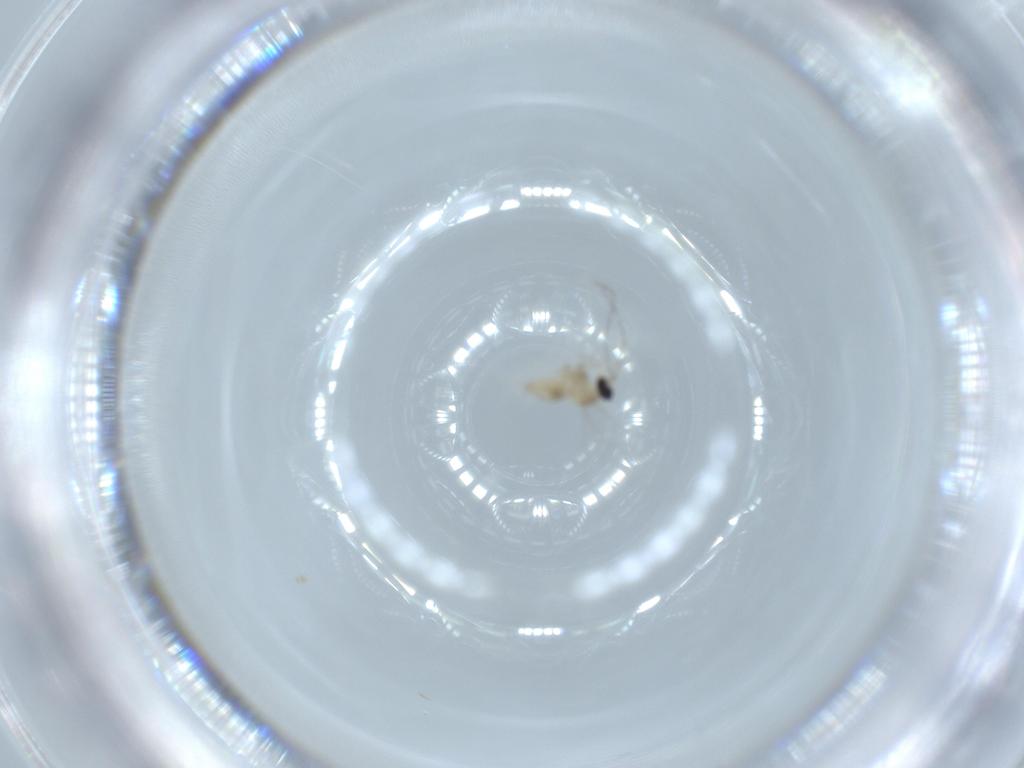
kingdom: Animalia
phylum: Arthropoda
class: Insecta
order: Diptera
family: Cecidomyiidae
